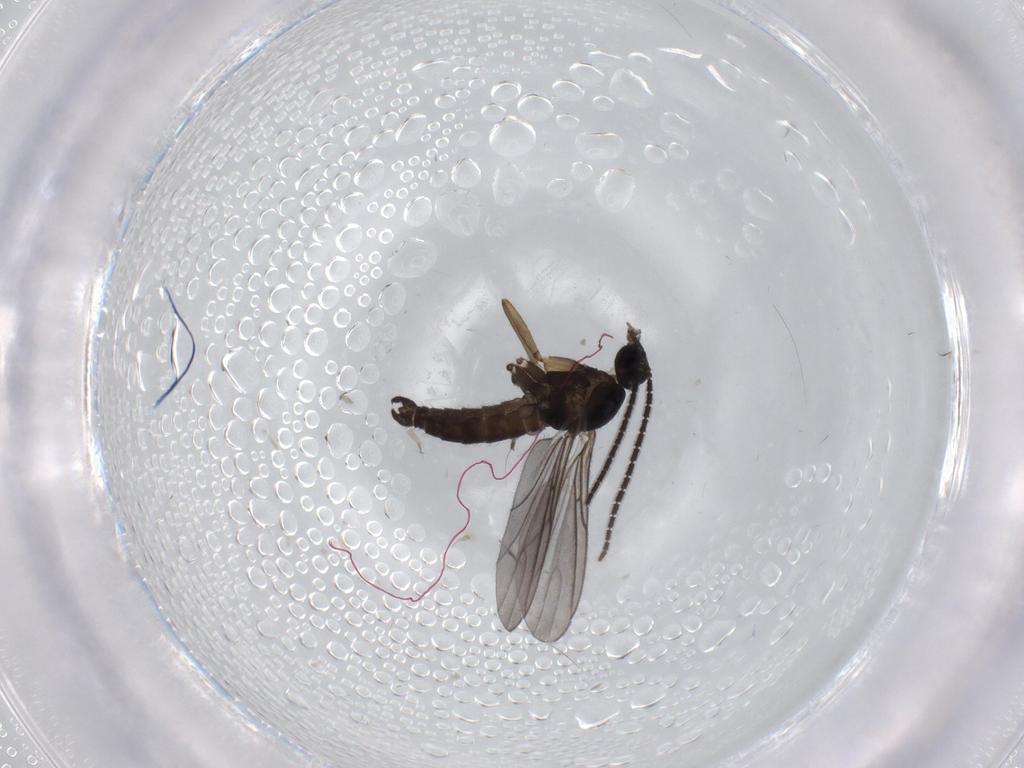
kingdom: Animalia
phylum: Arthropoda
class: Insecta
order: Diptera
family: Sciaridae
